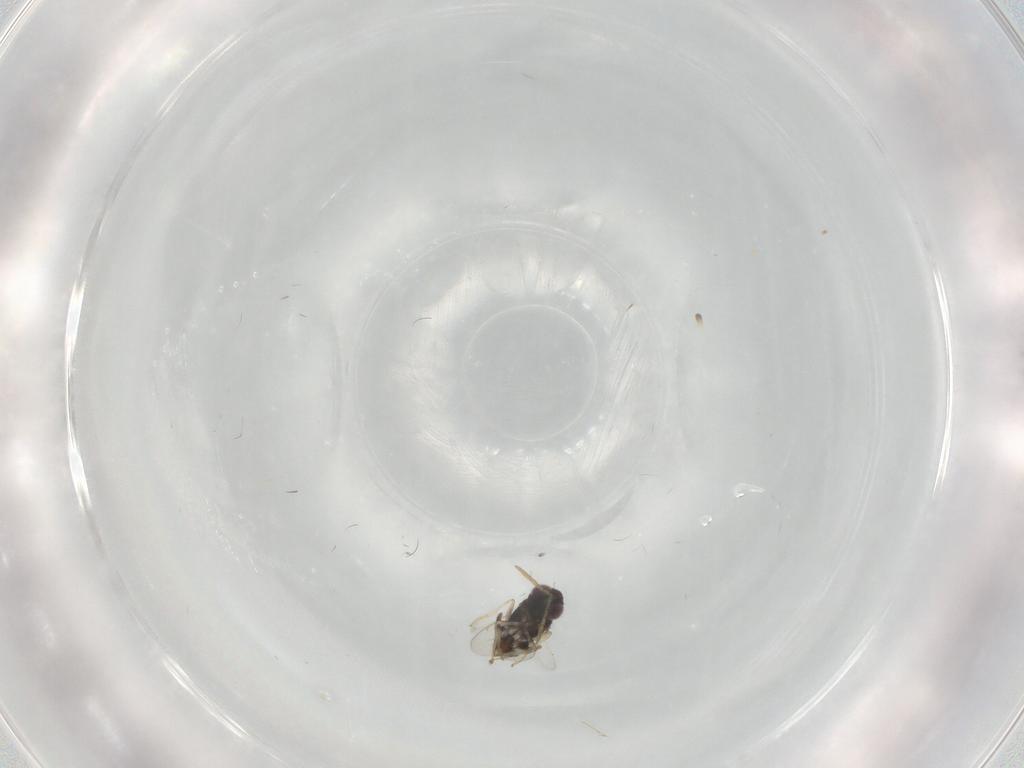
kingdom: Animalia
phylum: Arthropoda
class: Insecta
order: Hymenoptera
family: Aphelinidae
